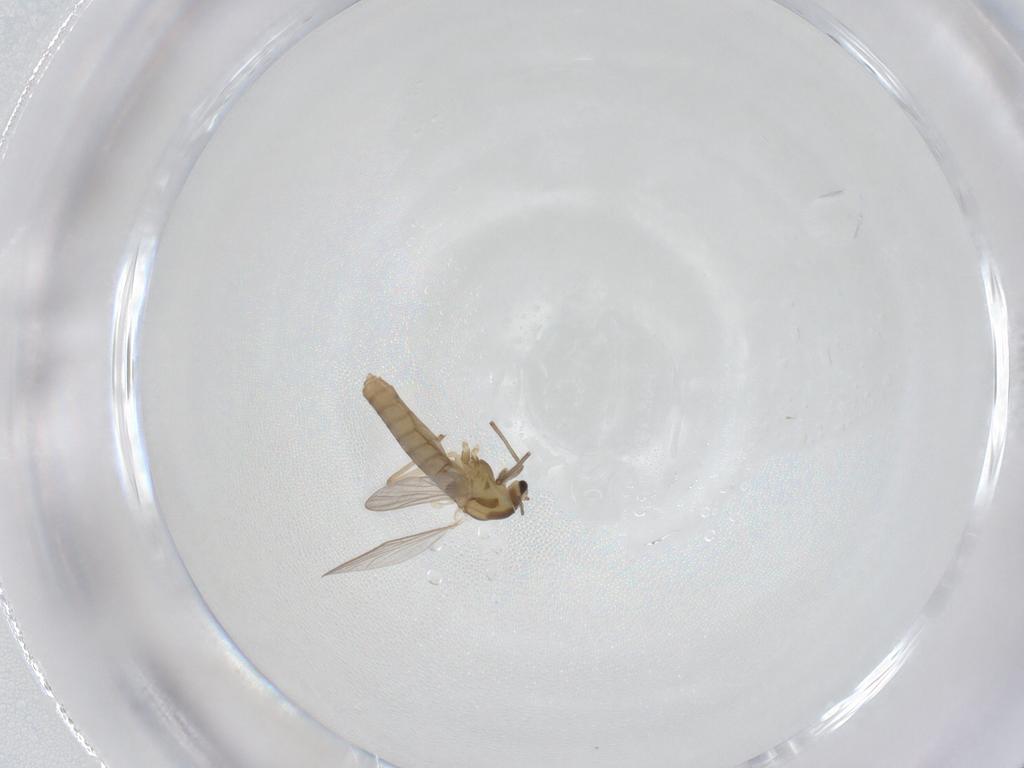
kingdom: Animalia
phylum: Arthropoda
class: Insecta
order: Diptera
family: Chironomidae
